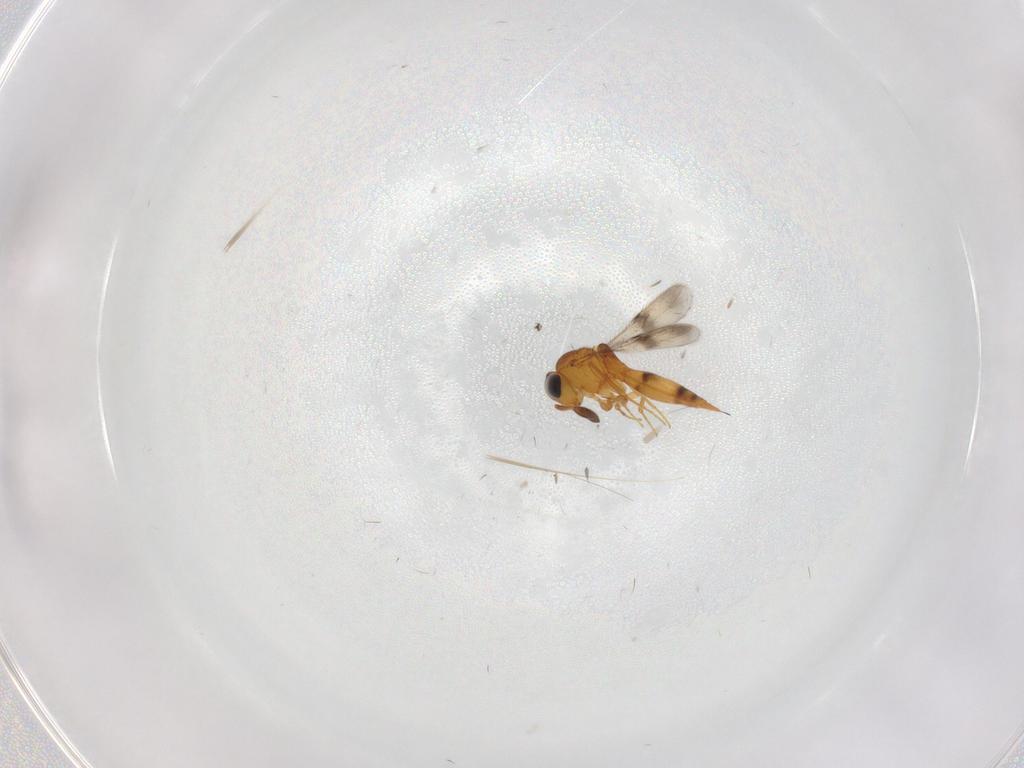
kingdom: Animalia
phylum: Arthropoda
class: Insecta
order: Hymenoptera
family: Scelionidae
